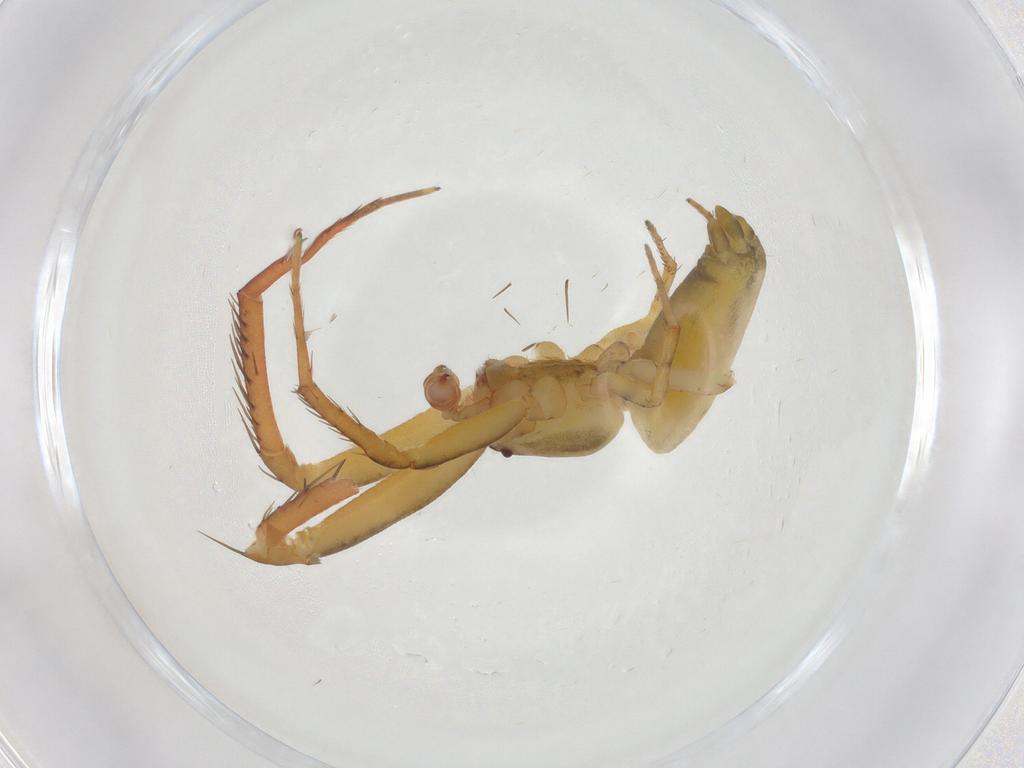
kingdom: Animalia
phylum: Arthropoda
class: Arachnida
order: Araneae
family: Uloboridae
